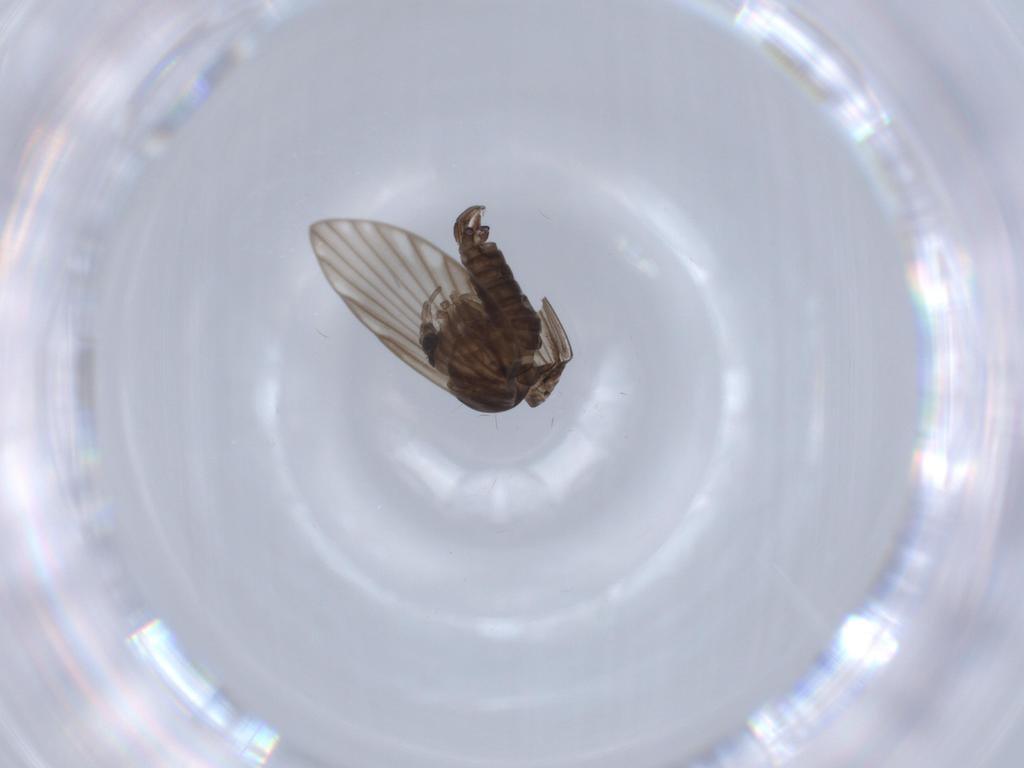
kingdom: Animalia
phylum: Arthropoda
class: Insecta
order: Diptera
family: Psychodidae
